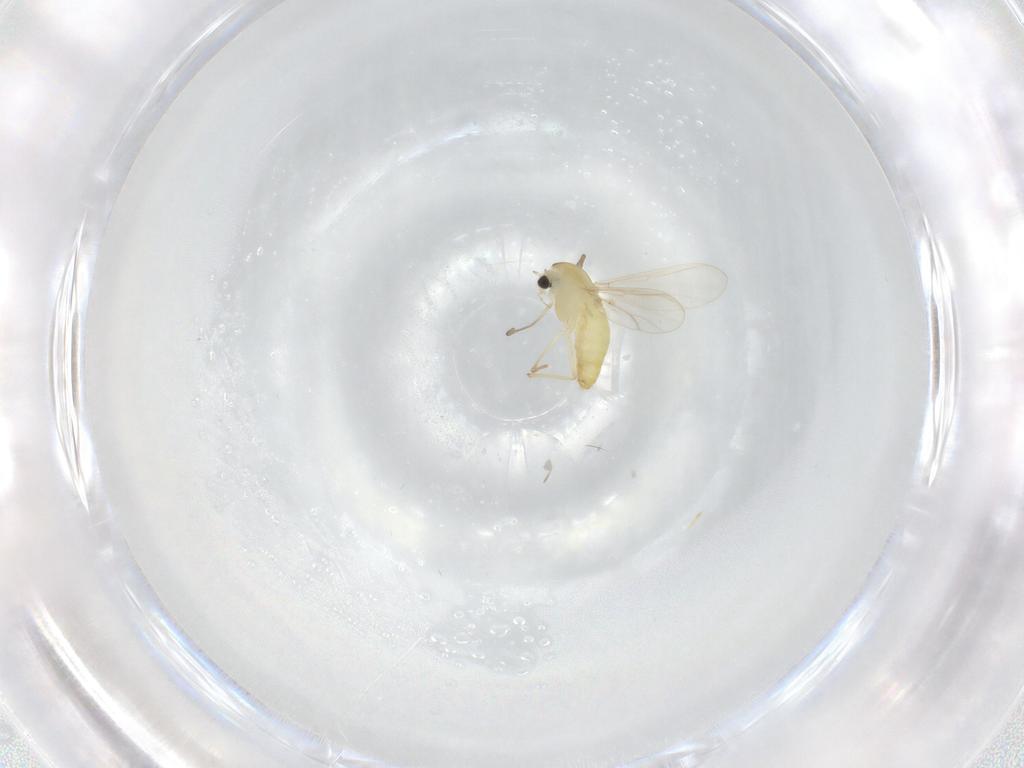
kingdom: Animalia
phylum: Arthropoda
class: Insecta
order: Diptera
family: Chironomidae
